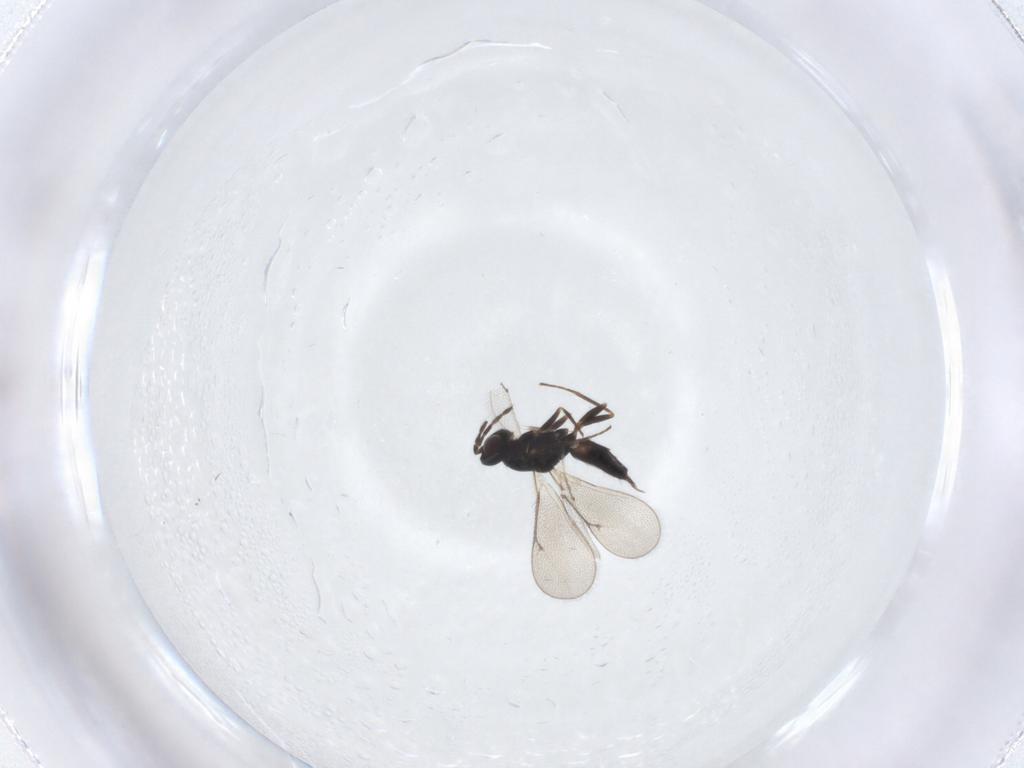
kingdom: Animalia
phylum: Arthropoda
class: Insecta
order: Hymenoptera
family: Eulophidae
